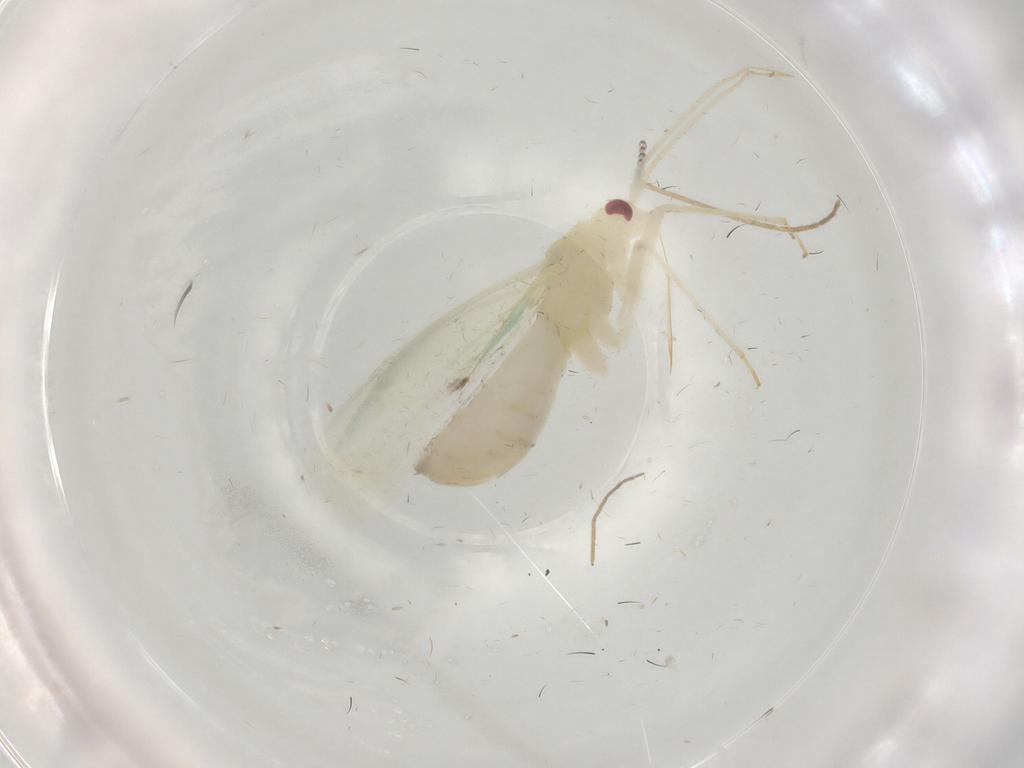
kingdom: Animalia
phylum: Arthropoda
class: Insecta
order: Hemiptera
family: Miridae
